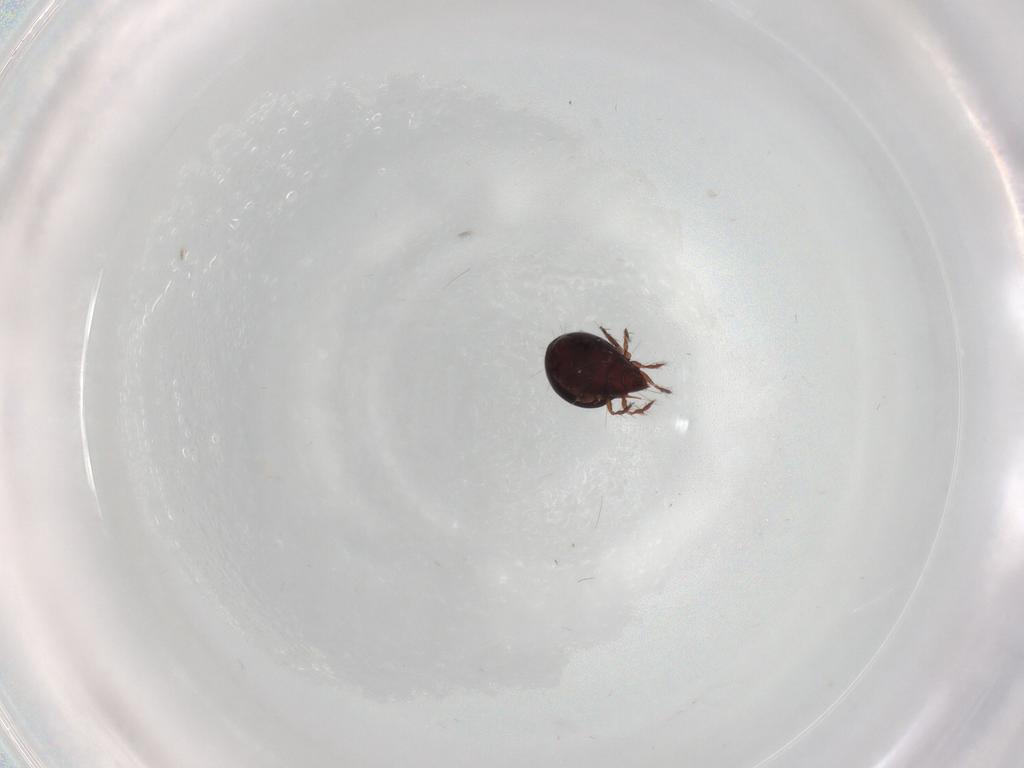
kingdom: Animalia
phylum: Arthropoda
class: Arachnida
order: Sarcoptiformes
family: Ceratoppiidae
